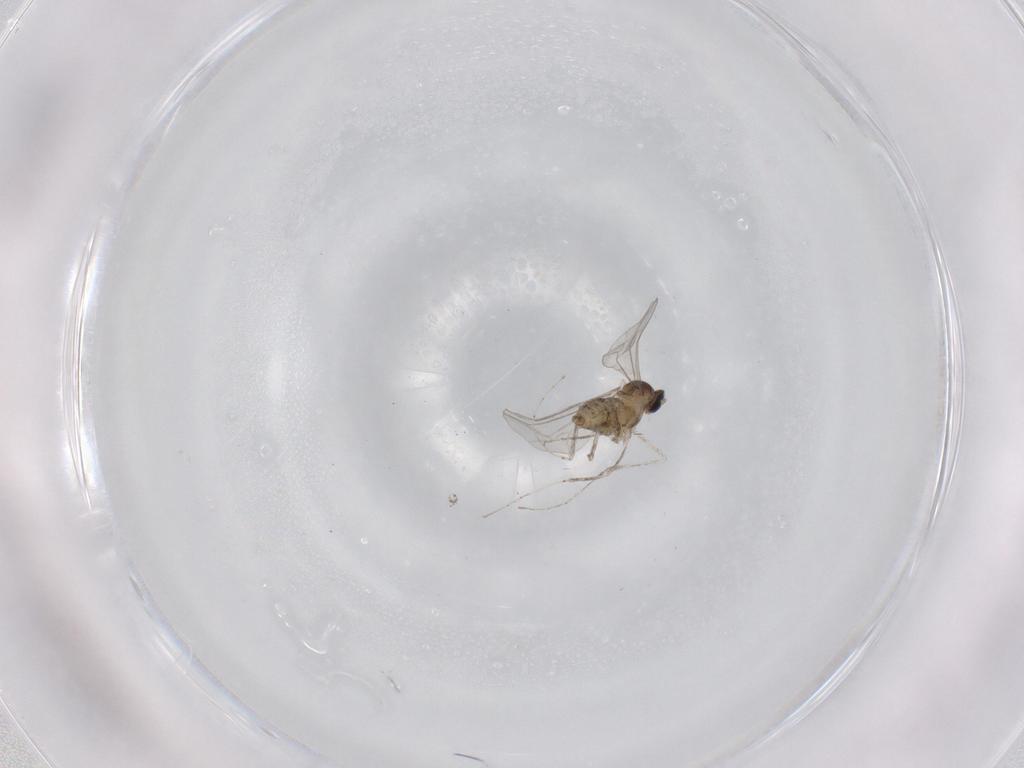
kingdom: Animalia
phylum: Arthropoda
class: Insecta
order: Diptera
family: Cecidomyiidae
